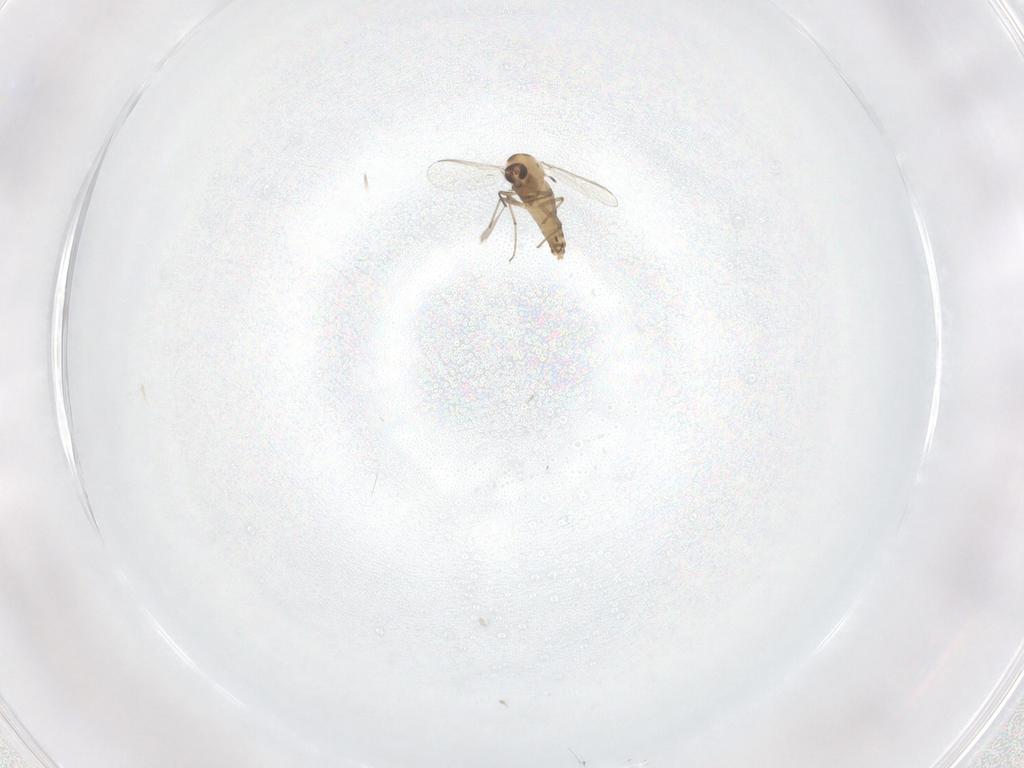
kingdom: Animalia
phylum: Arthropoda
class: Insecta
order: Diptera
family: Chironomidae
